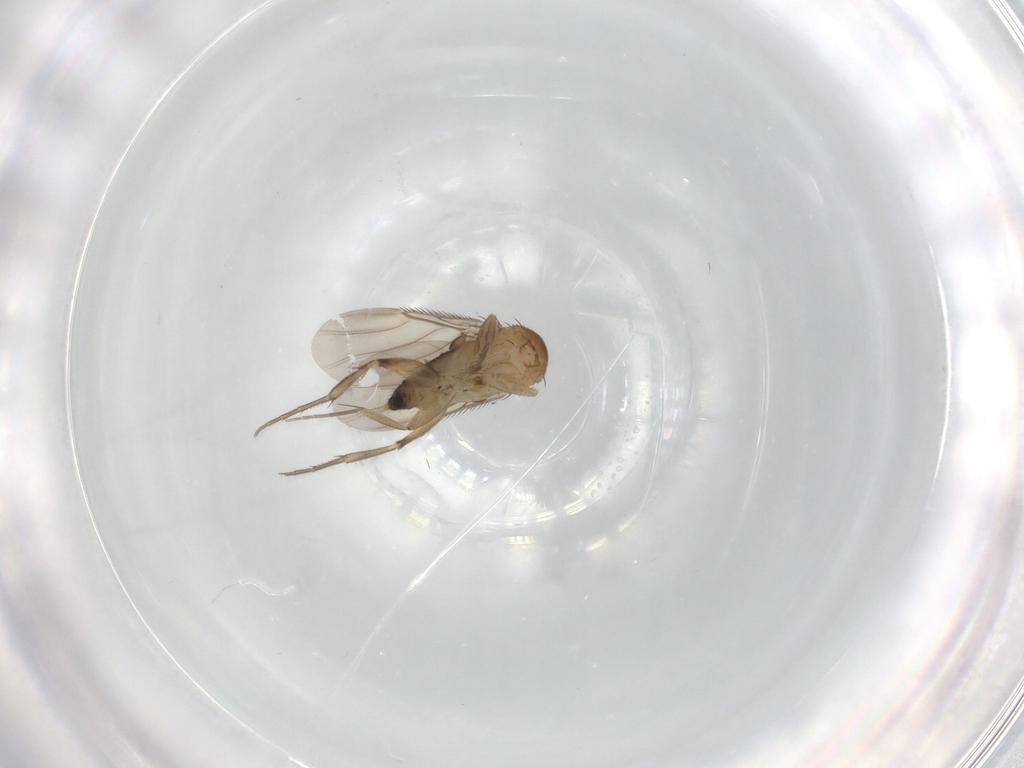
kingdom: Animalia
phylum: Arthropoda
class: Insecta
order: Diptera
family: Phoridae
